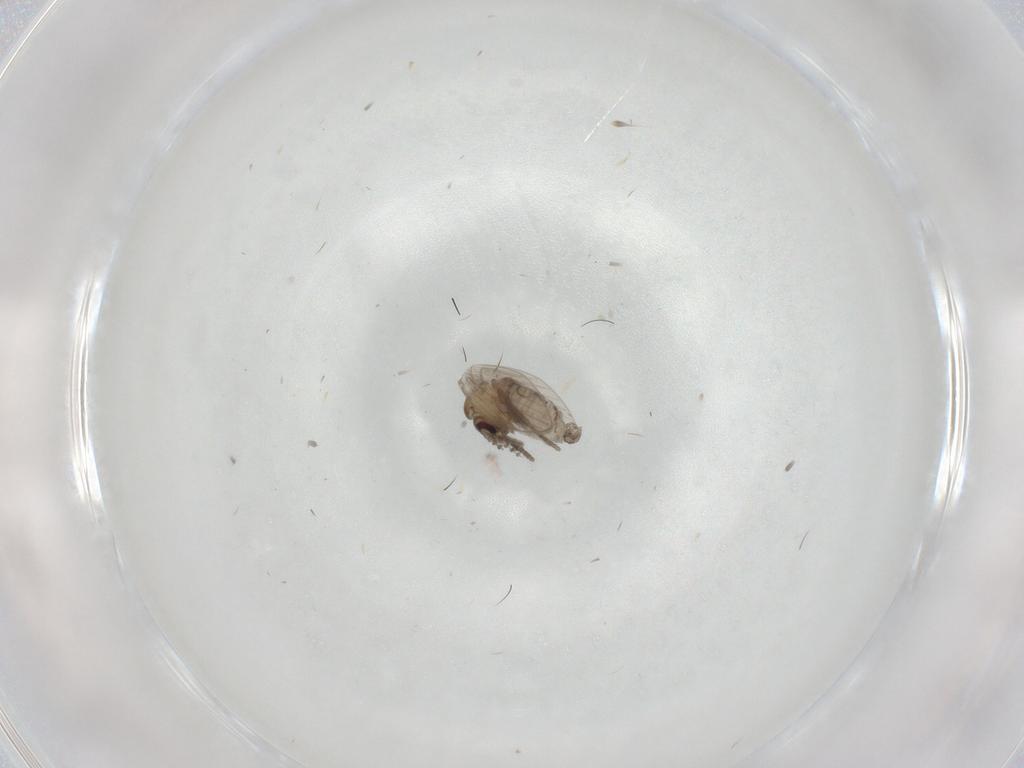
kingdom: Animalia
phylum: Arthropoda
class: Insecta
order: Diptera
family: Psychodidae
